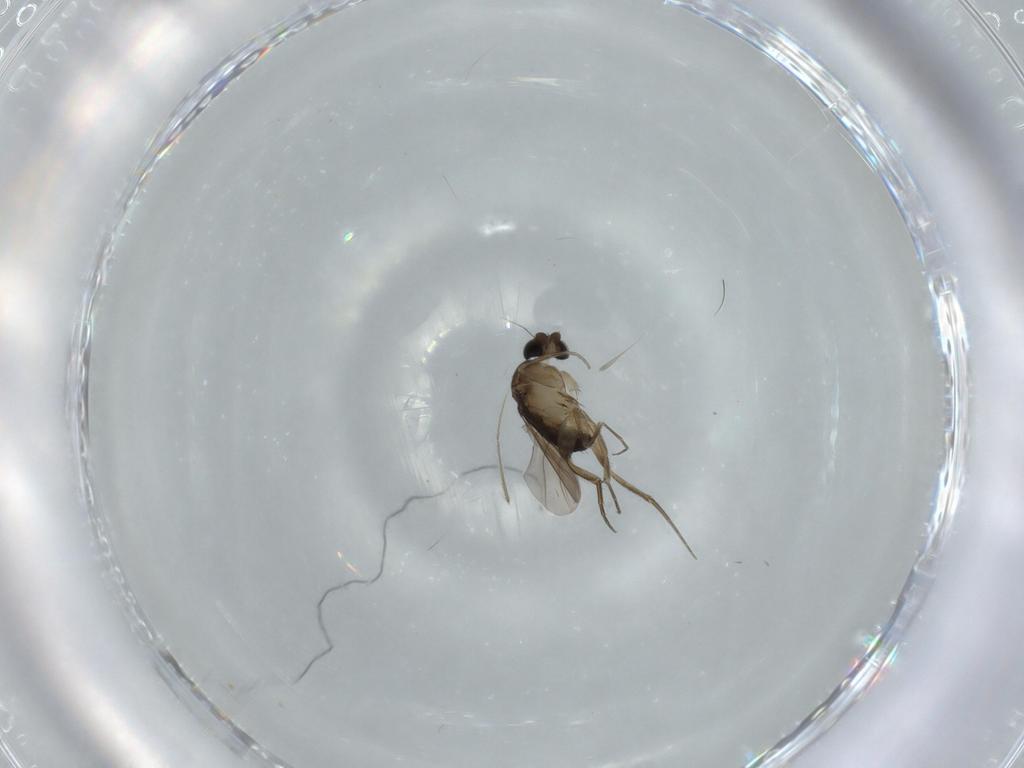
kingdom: Animalia
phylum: Arthropoda
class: Insecta
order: Diptera
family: Phoridae
